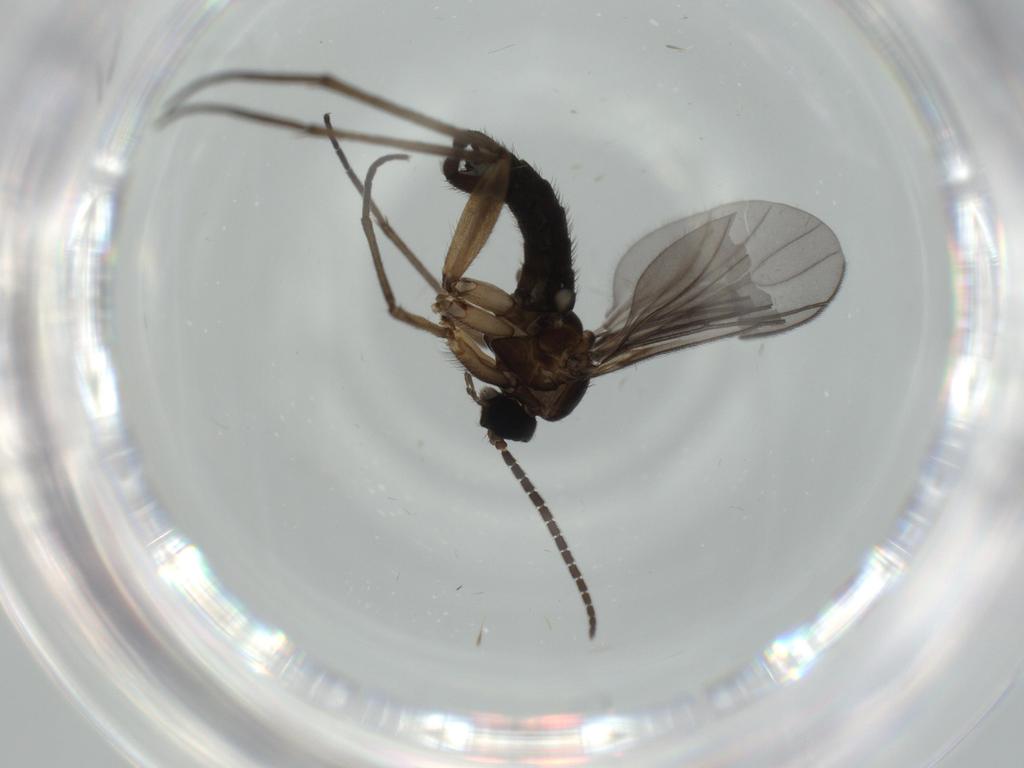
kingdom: Animalia
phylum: Arthropoda
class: Insecta
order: Diptera
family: Sciaridae
